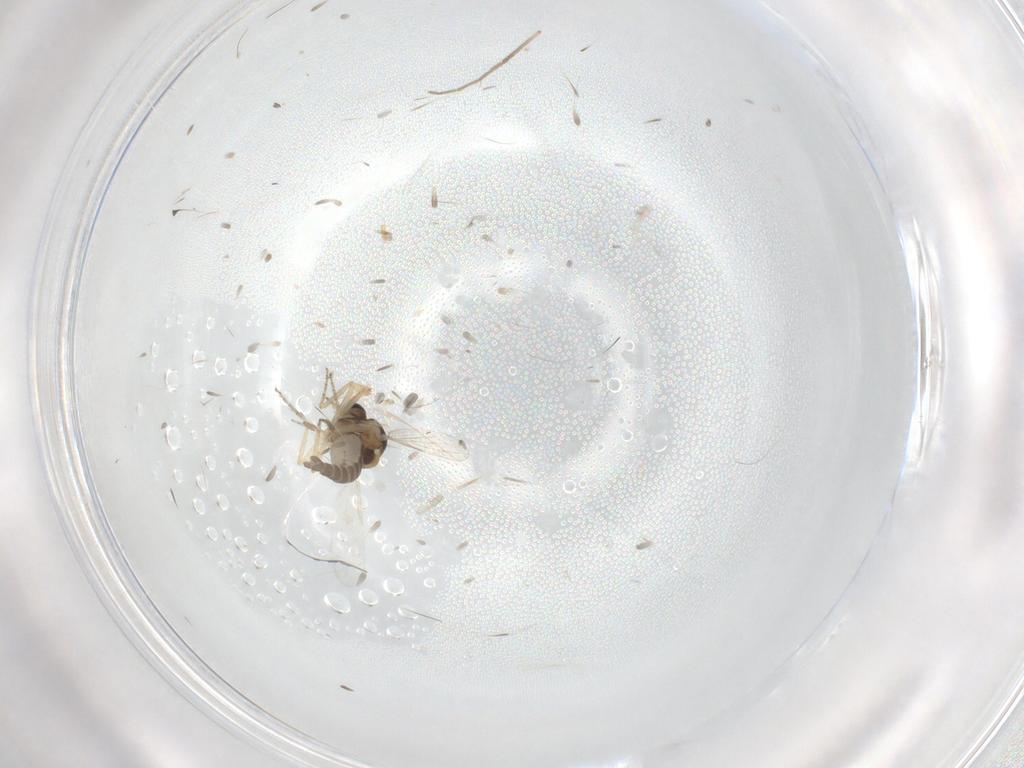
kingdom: Animalia
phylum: Arthropoda
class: Insecta
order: Diptera
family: Ceratopogonidae
